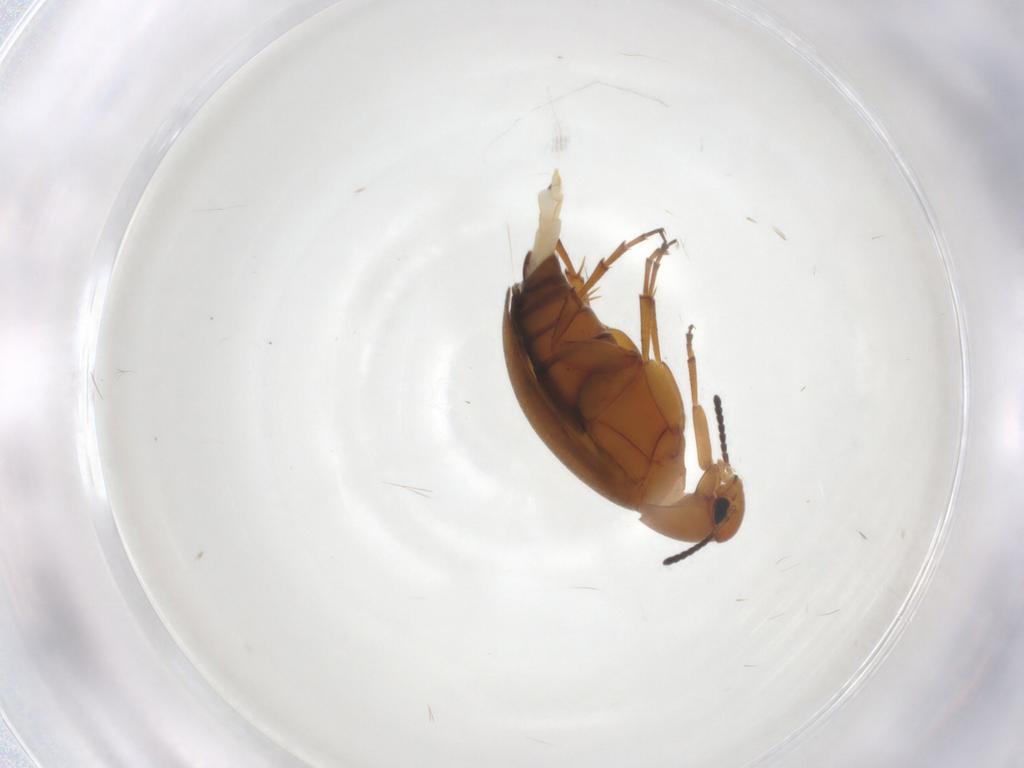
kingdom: Animalia
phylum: Arthropoda
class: Insecta
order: Coleoptera
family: Scraptiidae
